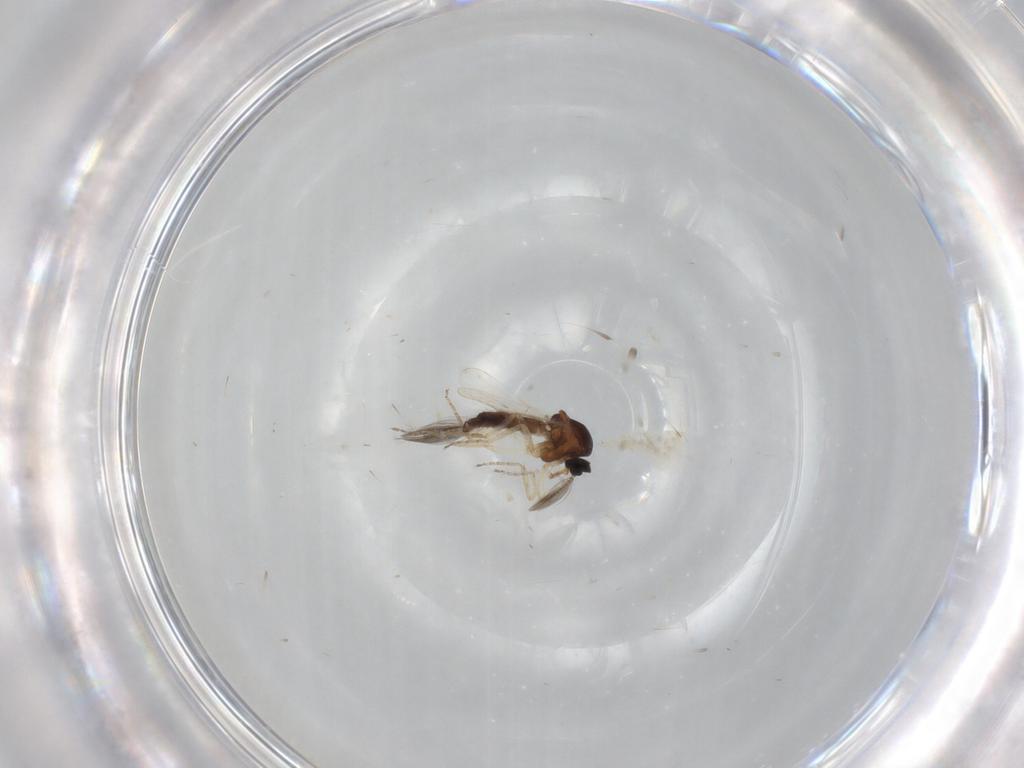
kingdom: Animalia
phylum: Arthropoda
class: Insecta
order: Diptera
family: Ceratopogonidae
